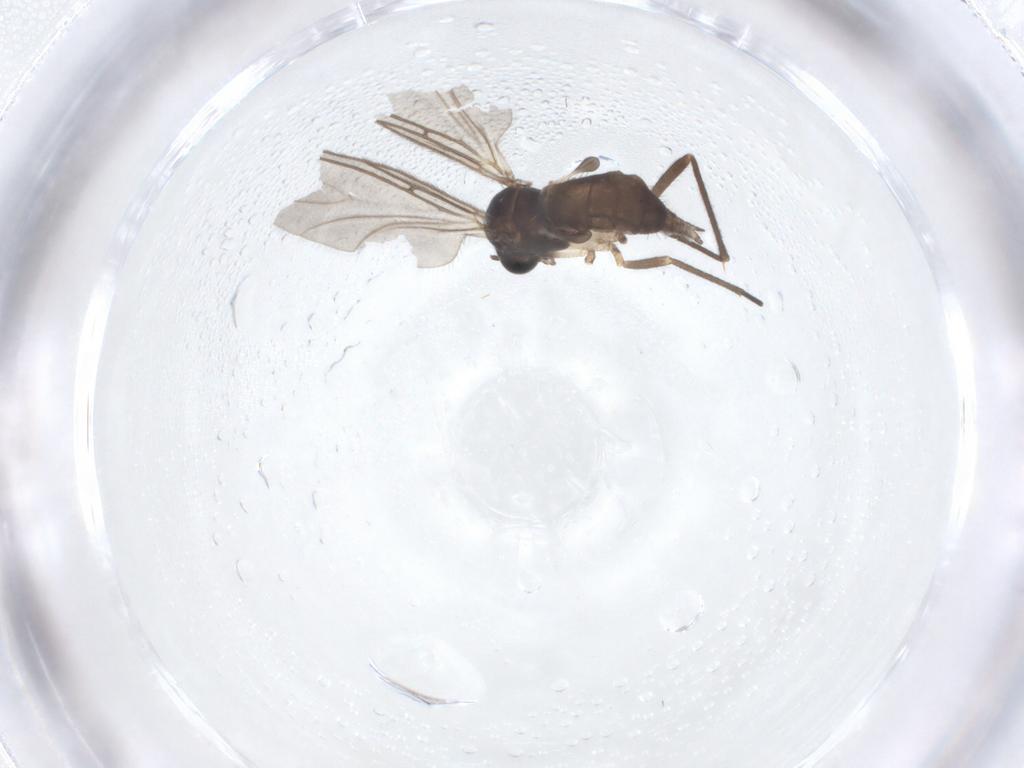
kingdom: Animalia
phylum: Arthropoda
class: Insecta
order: Diptera
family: Sciaridae
